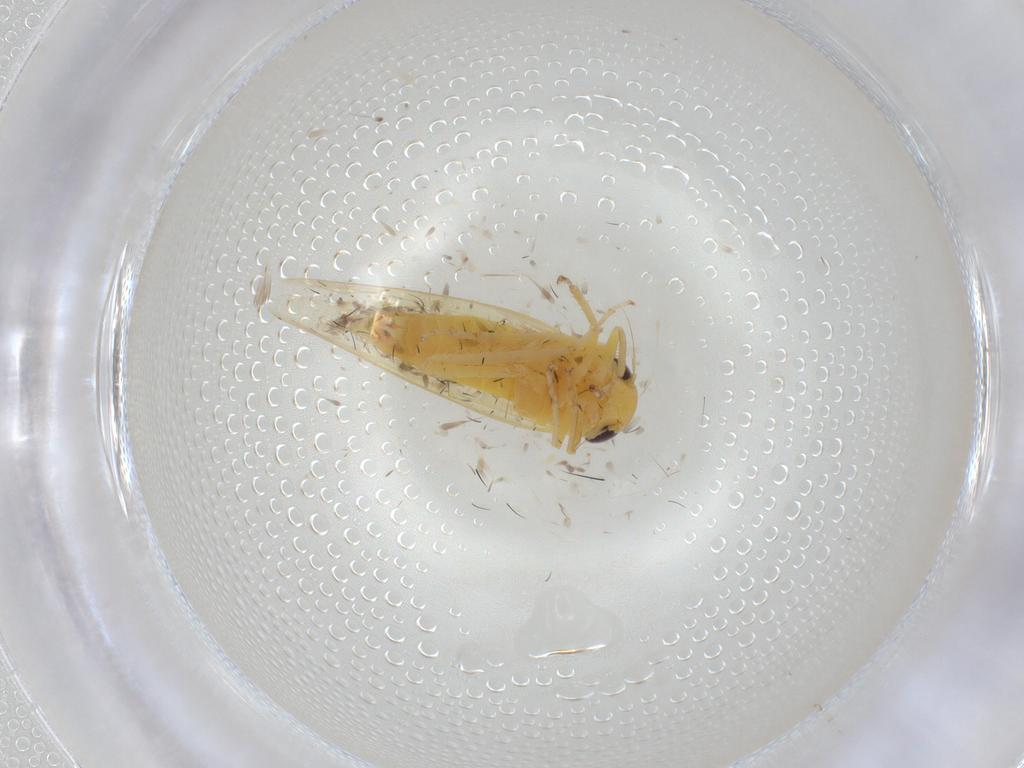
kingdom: Animalia
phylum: Arthropoda
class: Insecta
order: Hemiptera
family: Cicadellidae
